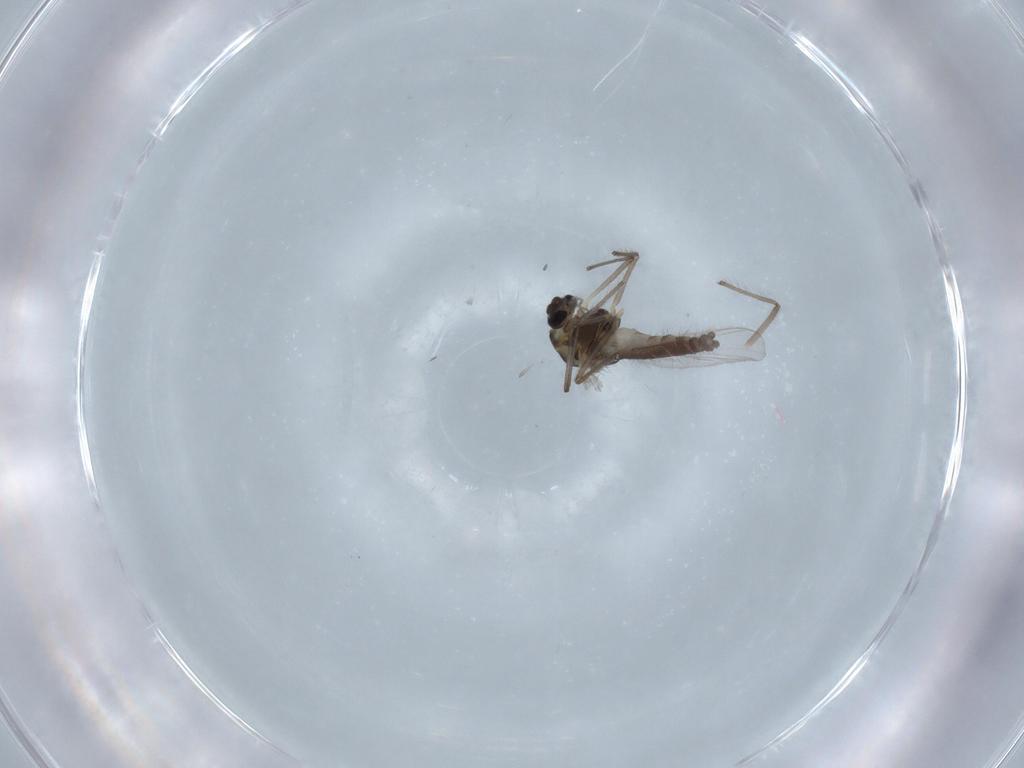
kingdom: Animalia
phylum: Arthropoda
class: Insecta
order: Diptera
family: Chironomidae
